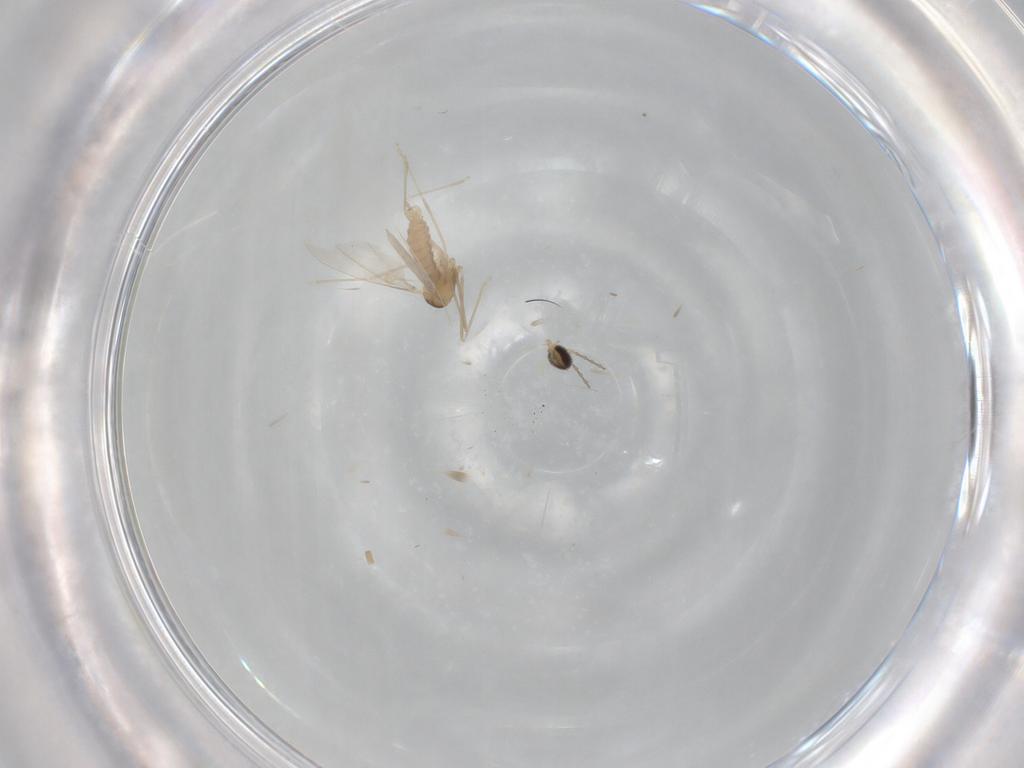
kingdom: Animalia
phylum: Arthropoda
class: Insecta
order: Diptera
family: Cecidomyiidae
